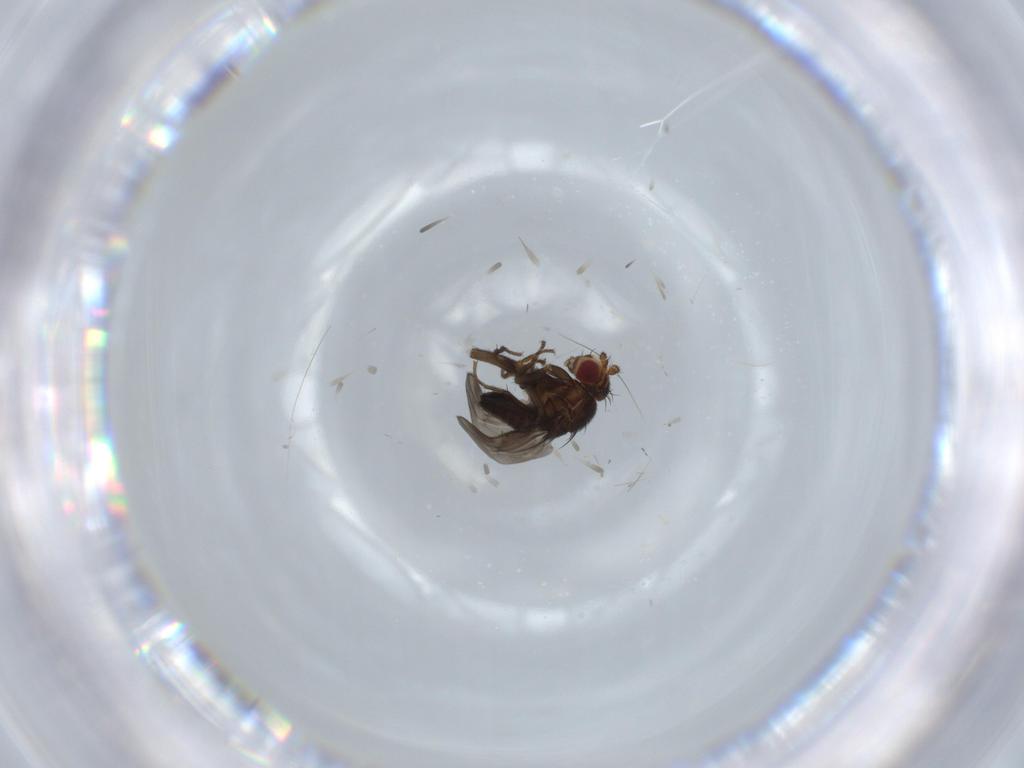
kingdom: Animalia
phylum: Arthropoda
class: Insecta
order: Diptera
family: Sphaeroceridae
